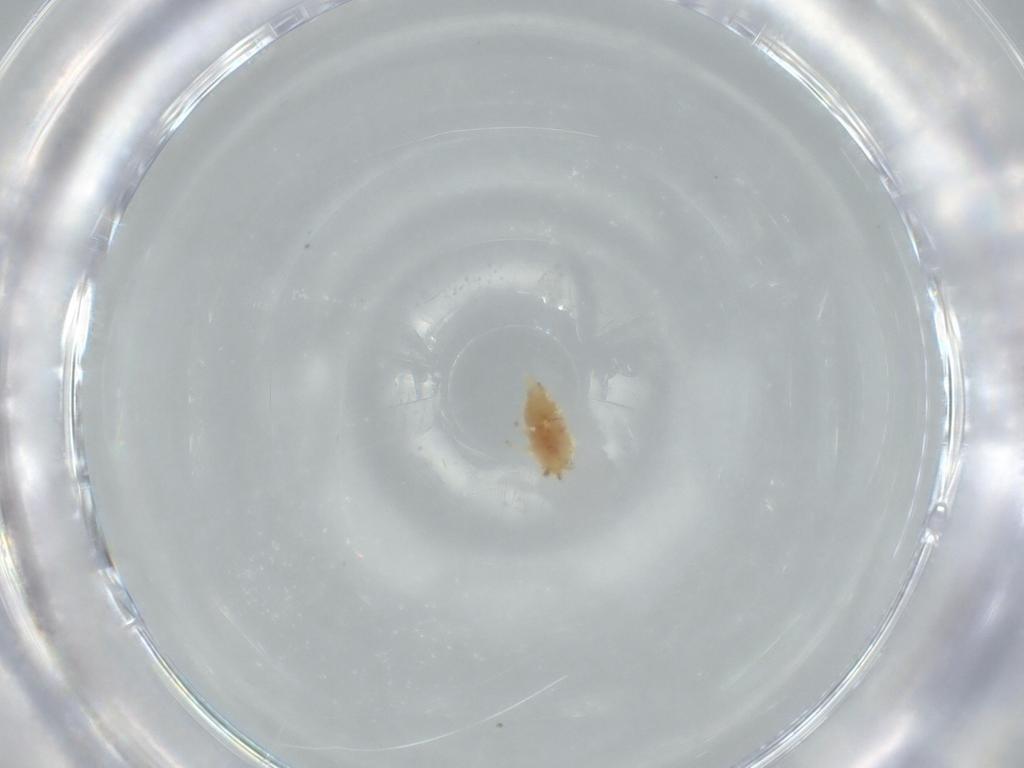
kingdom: Animalia
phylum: Arthropoda
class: Insecta
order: Neuroptera
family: Coniopterygidae
